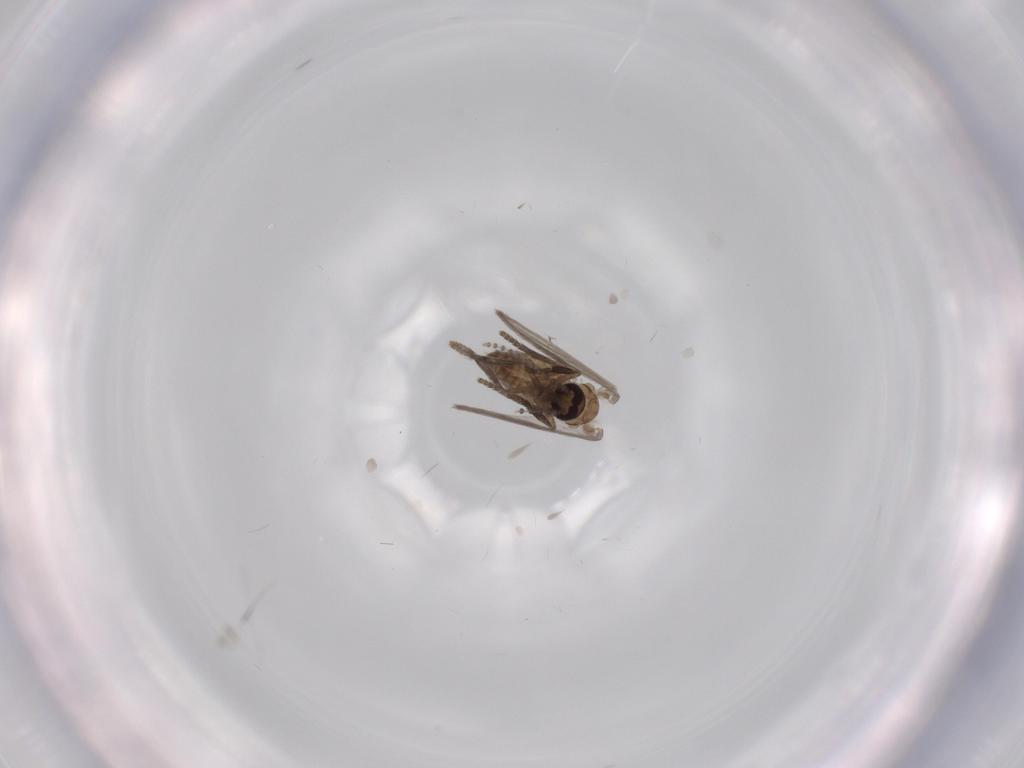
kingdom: Animalia
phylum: Arthropoda
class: Insecta
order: Diptera
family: Psychodidae
